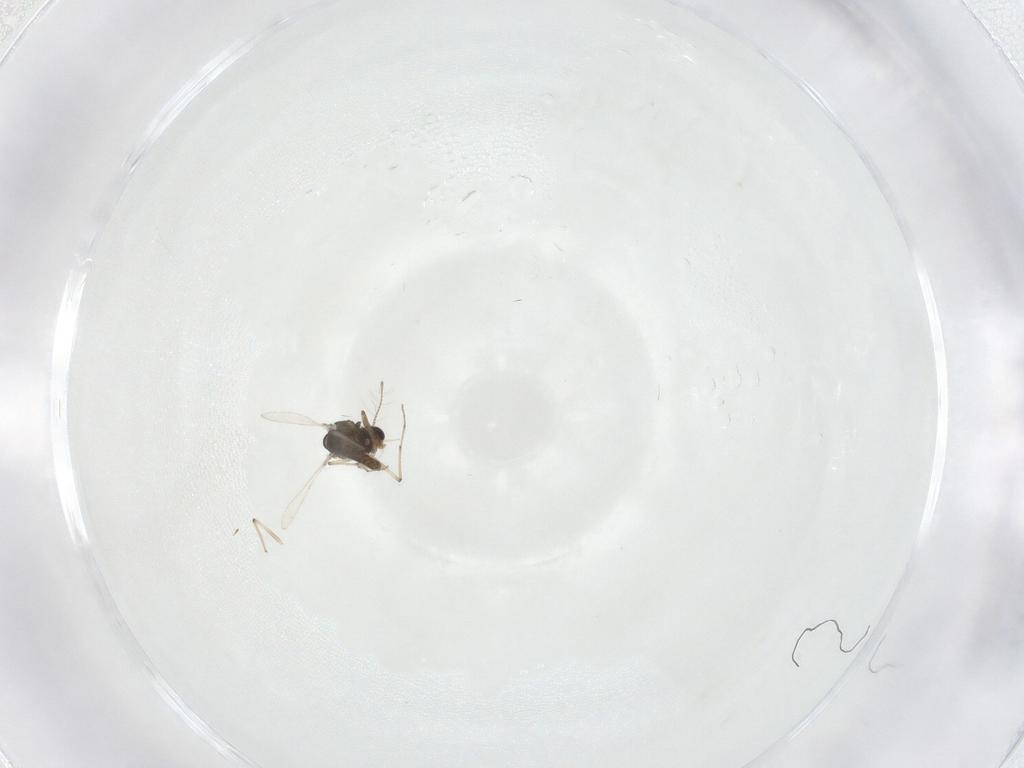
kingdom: Animalia
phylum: Arthropoda
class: Insecta
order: Diptera
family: Chironomidae
